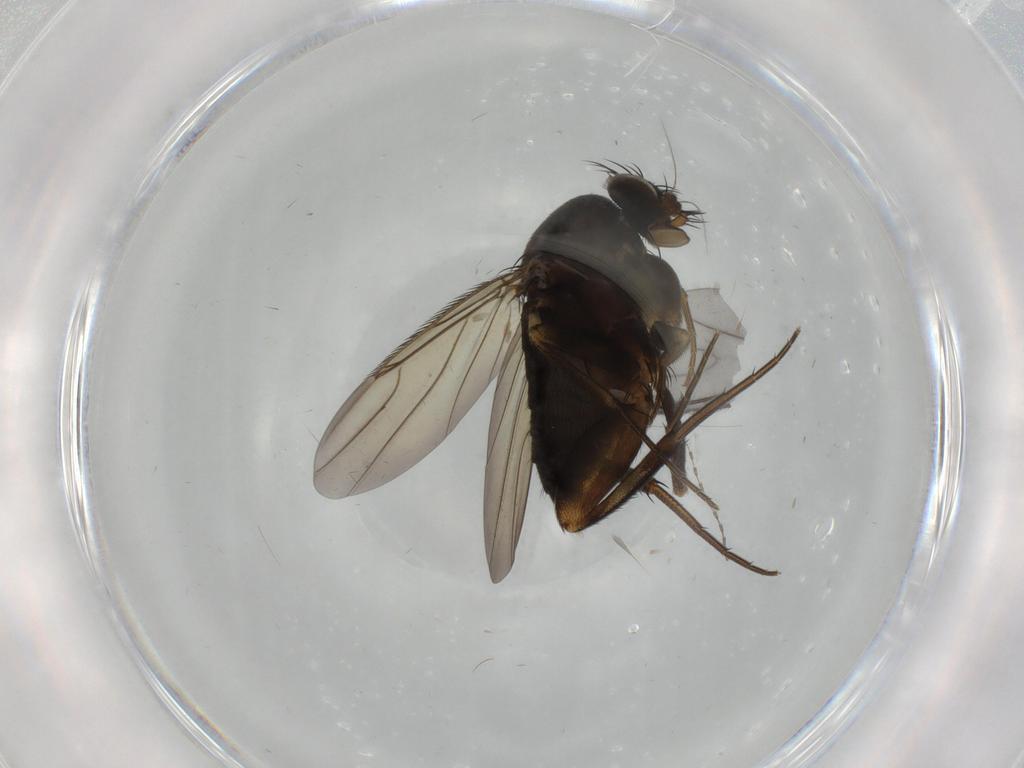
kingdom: Animalia
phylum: Arthropoda
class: Insecta
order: Diptera
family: Phoridae
